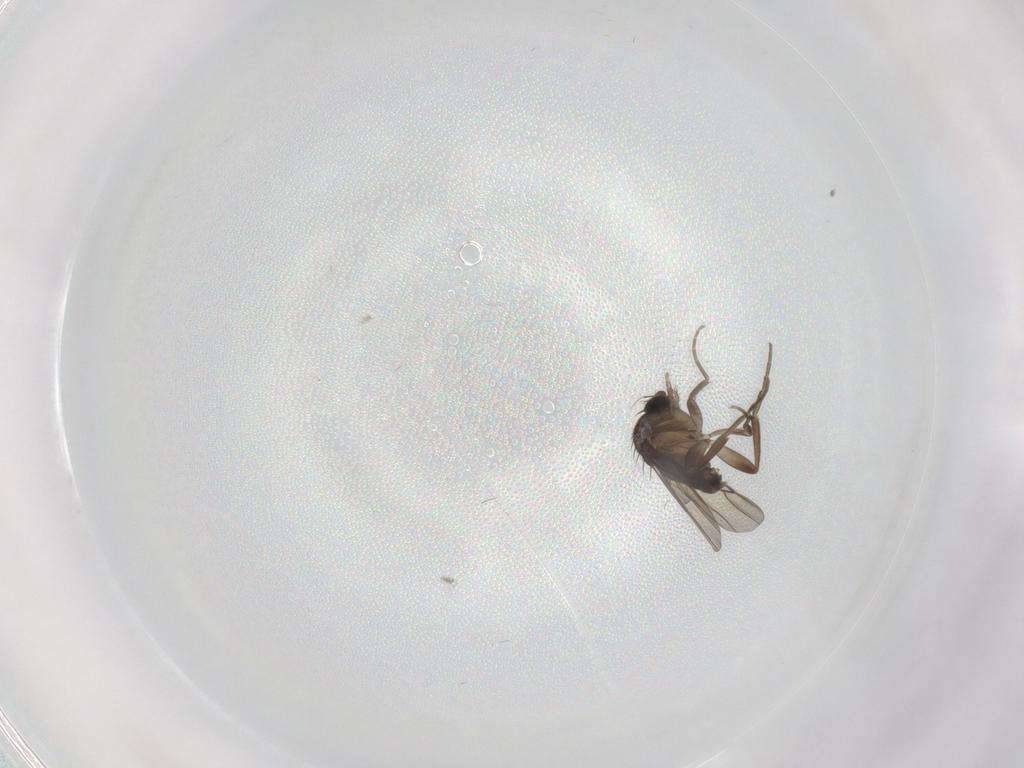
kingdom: Animalia
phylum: Arthropoda
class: Insecta
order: Diptera
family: Phoridae
